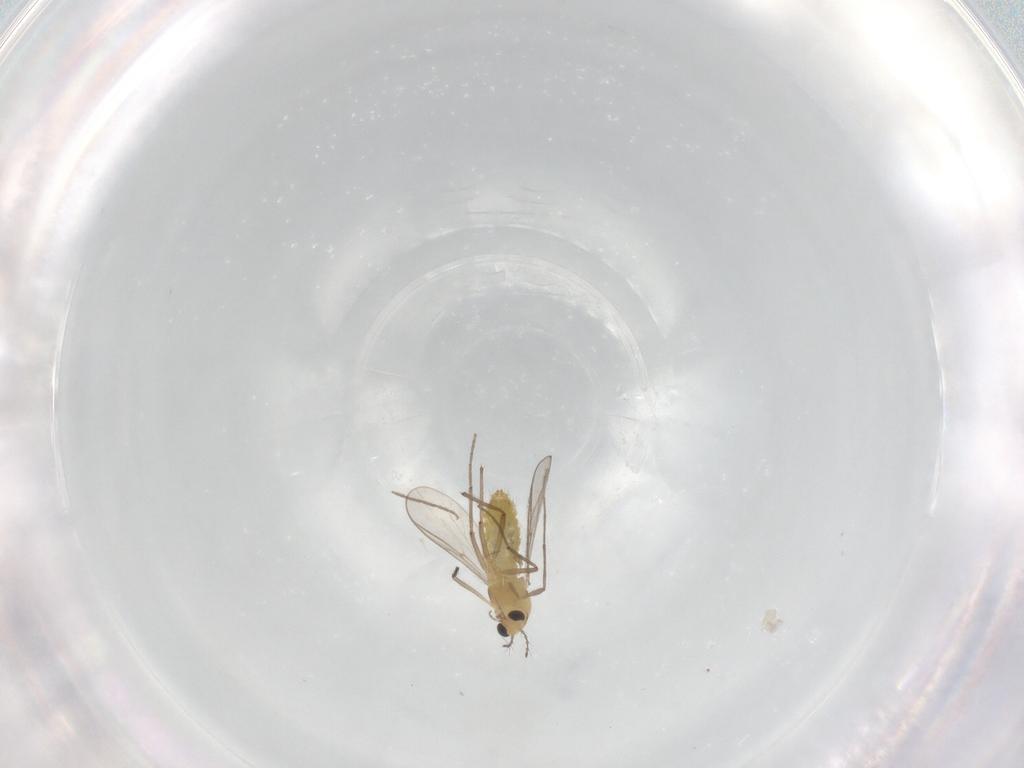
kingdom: Animalia
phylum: Arthropoda
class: Insecta
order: Diptera
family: Chironomidae
